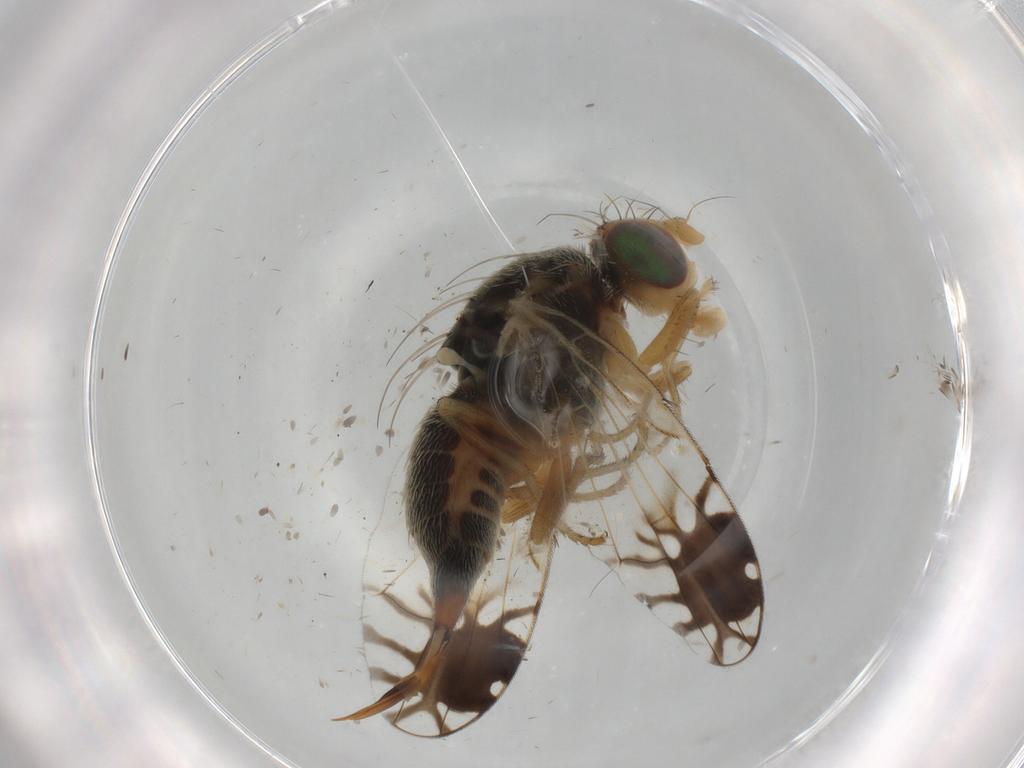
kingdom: Animalia
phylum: Arthropoda
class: Insecta
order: Diptera
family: Tephritidae
